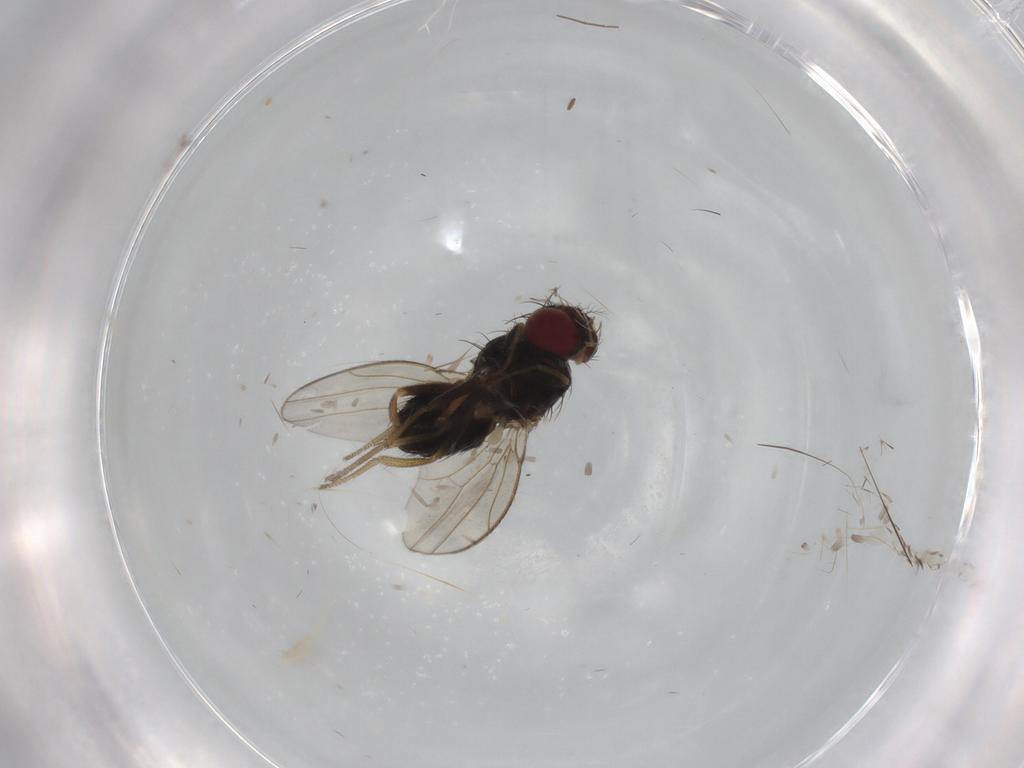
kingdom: Animalia
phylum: Arthropoda
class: Insecta
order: Diptera
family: Drosophilidae
